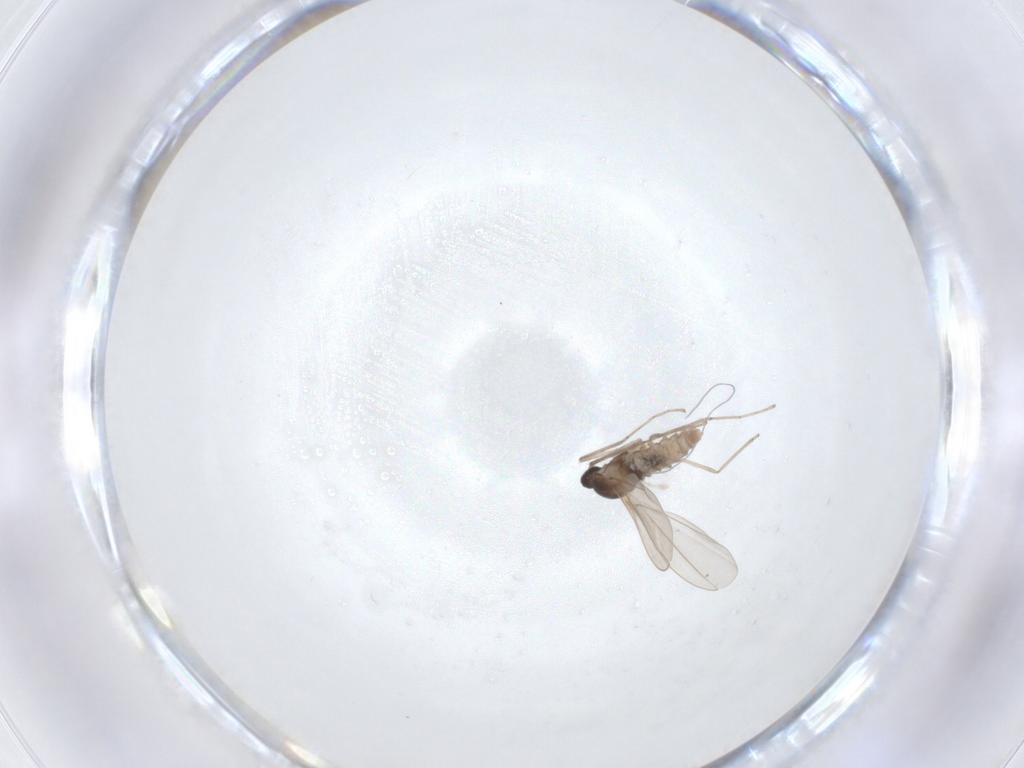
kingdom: Animalia
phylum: Arthropoda
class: Insecta
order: Diptera
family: Cecidomyiidae
